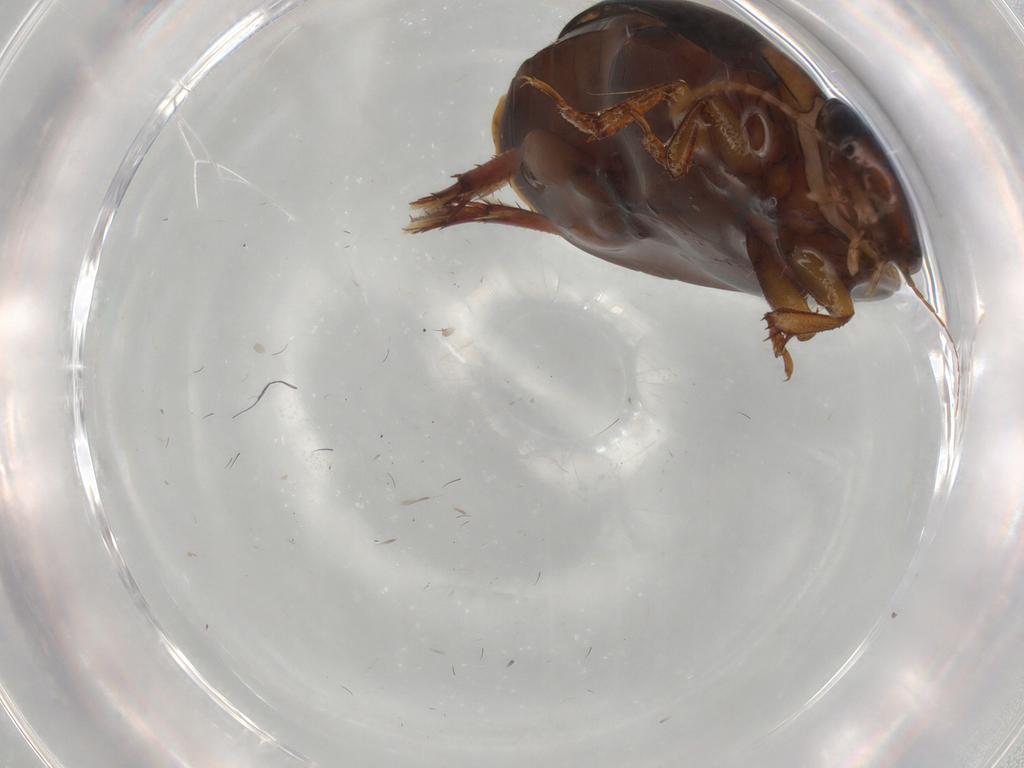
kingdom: Animalia
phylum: Arthropoda
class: Insecta
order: Coleoptera
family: Dytiscidae
